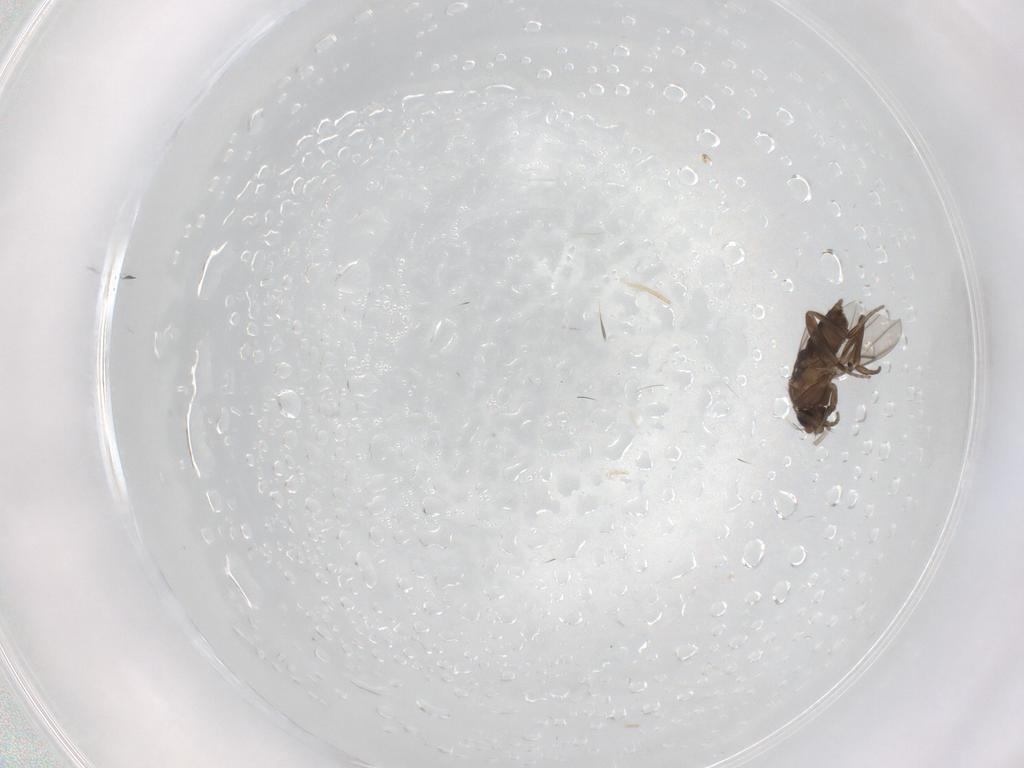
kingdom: Animalia
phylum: Arthropoda
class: Insecta
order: Diptera
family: Phoridae
